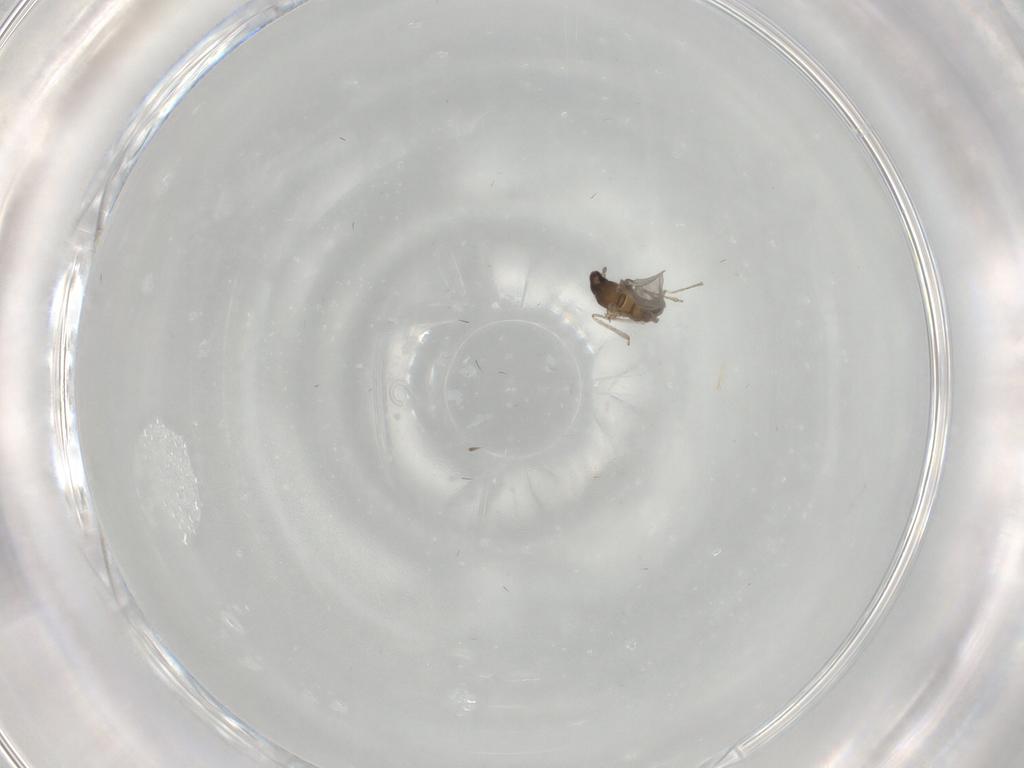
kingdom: Animalia
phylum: Arthropoda
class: Insecta
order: Diptera
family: Cecidomyiidae
